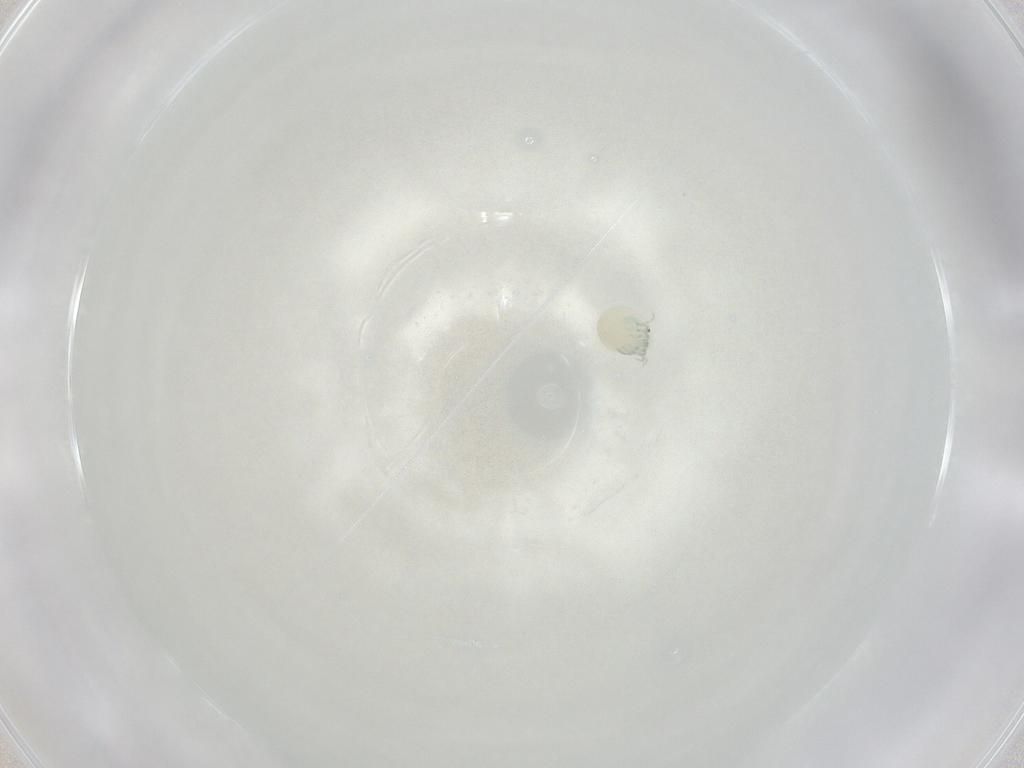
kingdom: Animalia
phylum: Arthropoda
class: Arachnida
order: Trombidiformes
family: Arrenuridae
